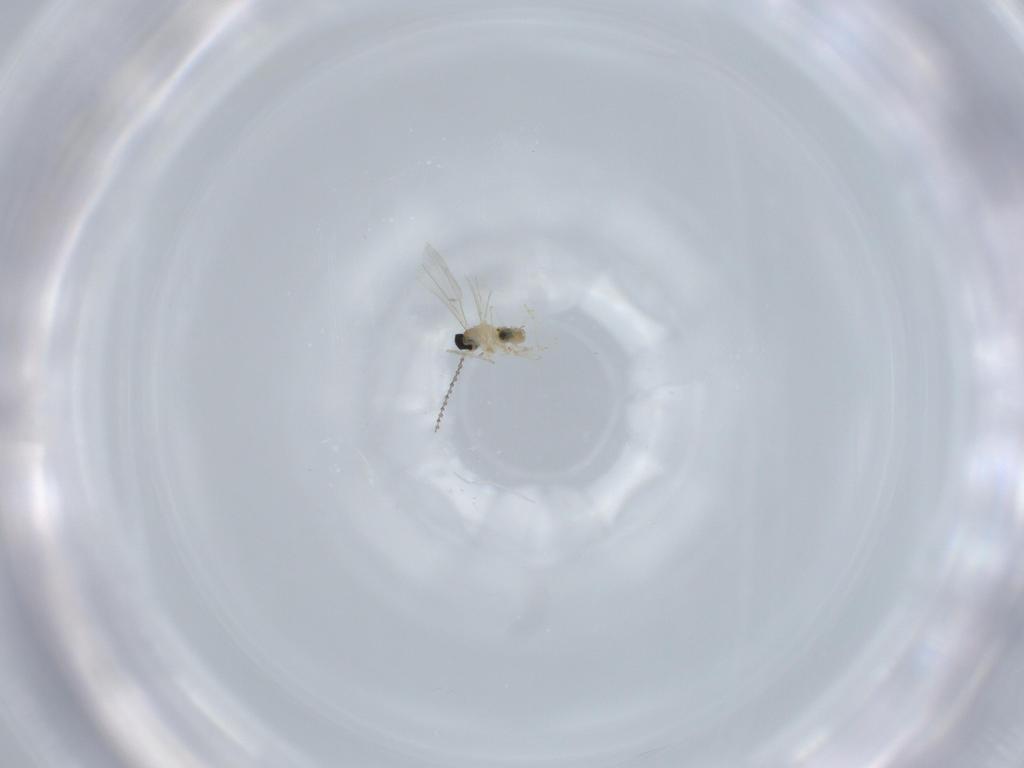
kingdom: Animalia
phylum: Arthropoda
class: Insecta
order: Diptera
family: Cecidomyiidae
